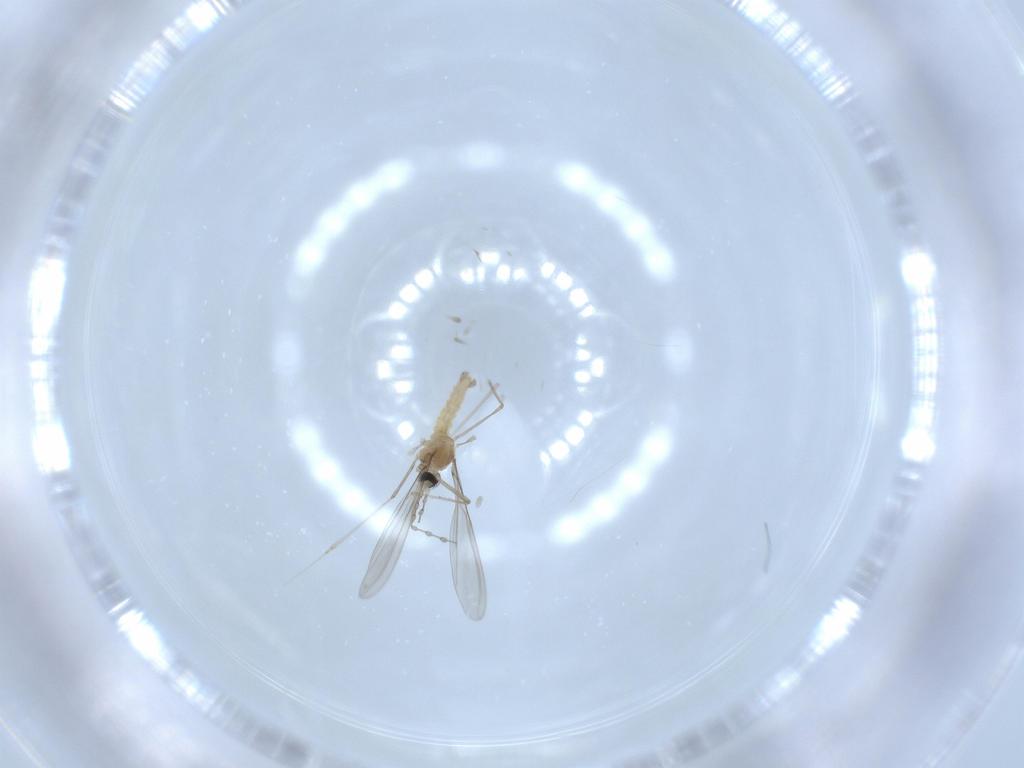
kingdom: Animalia
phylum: Arthropoda
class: Insecta
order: Diptera
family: Cecidomyiidae
